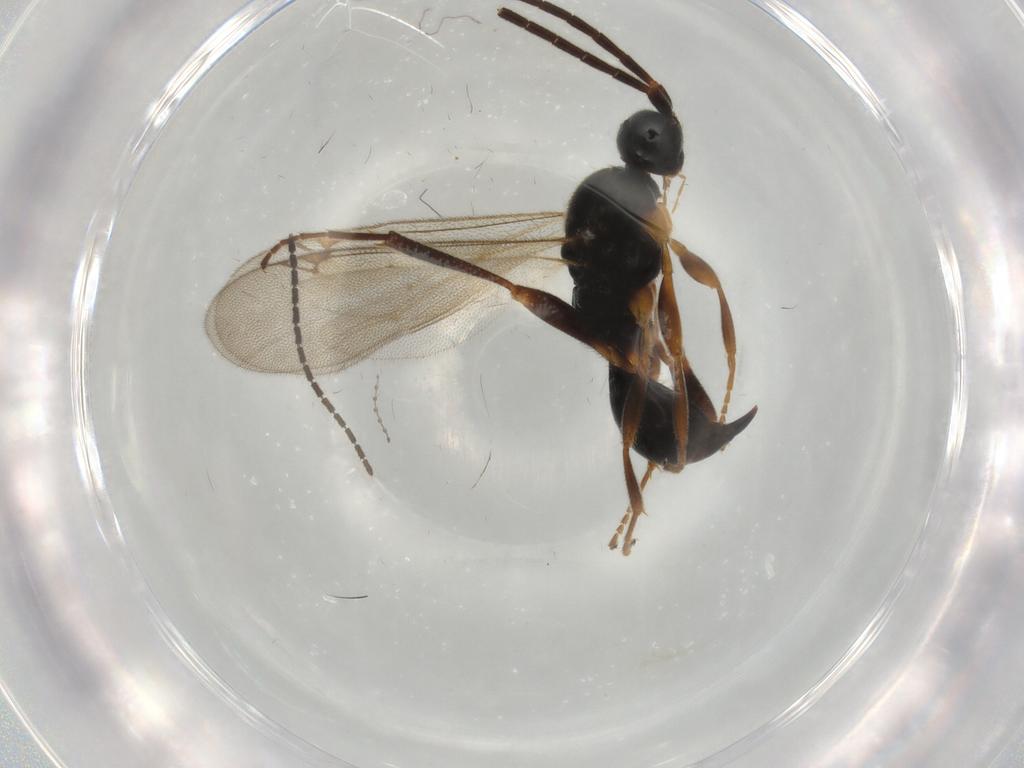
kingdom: Animalia
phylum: Arthropoda
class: Insecta
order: Hymenoptera
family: Proctotrupidae
